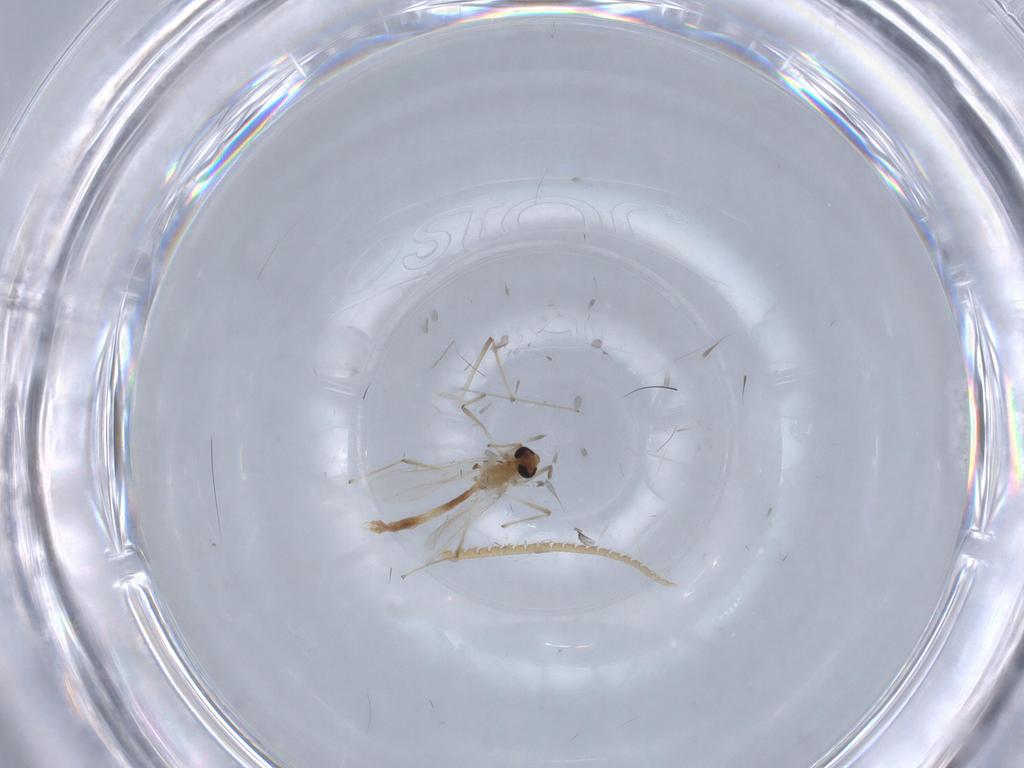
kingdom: Animalia
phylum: Arthropoda
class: Insecta
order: Diptera
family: Chironomidae
